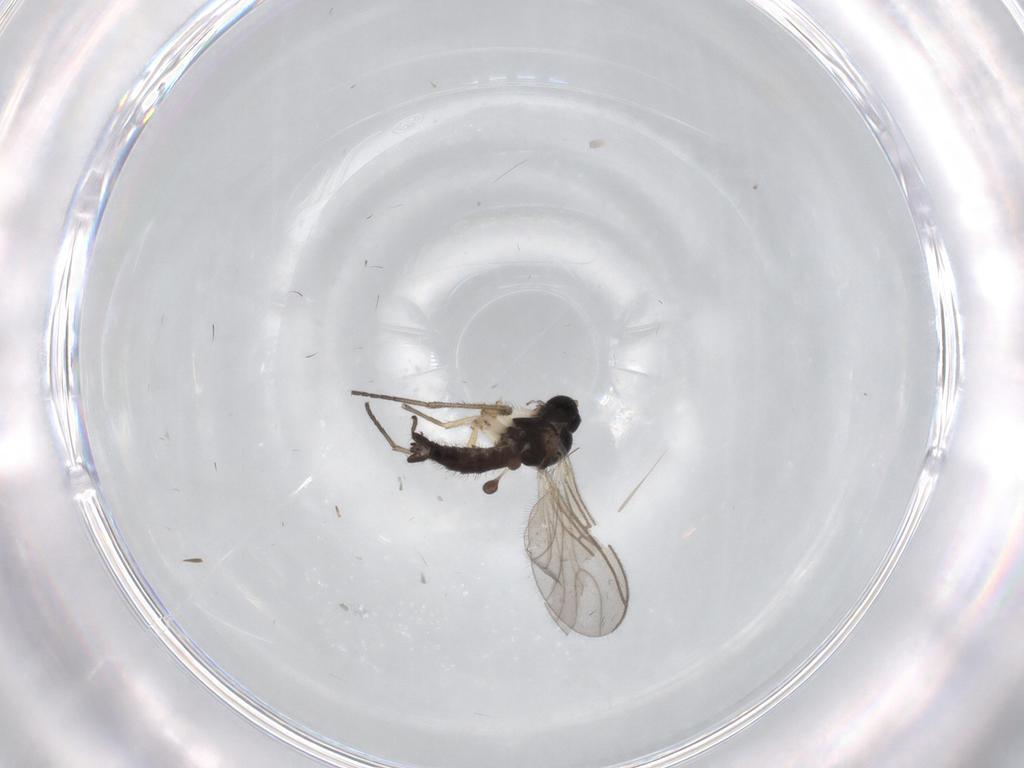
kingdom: Animalia
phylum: Arthropoda
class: Insecta
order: Diptera
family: Sciaridae
